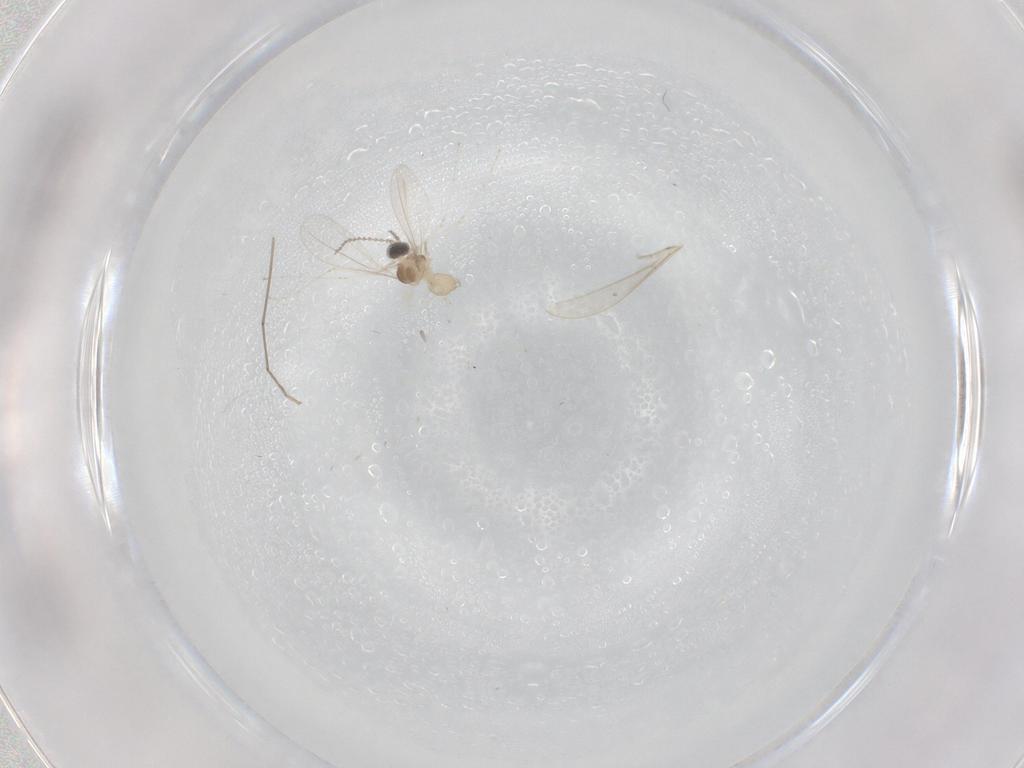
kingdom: Animalia
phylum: Arthropoda
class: Insecta
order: Diptera
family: Cecidomyiidae
